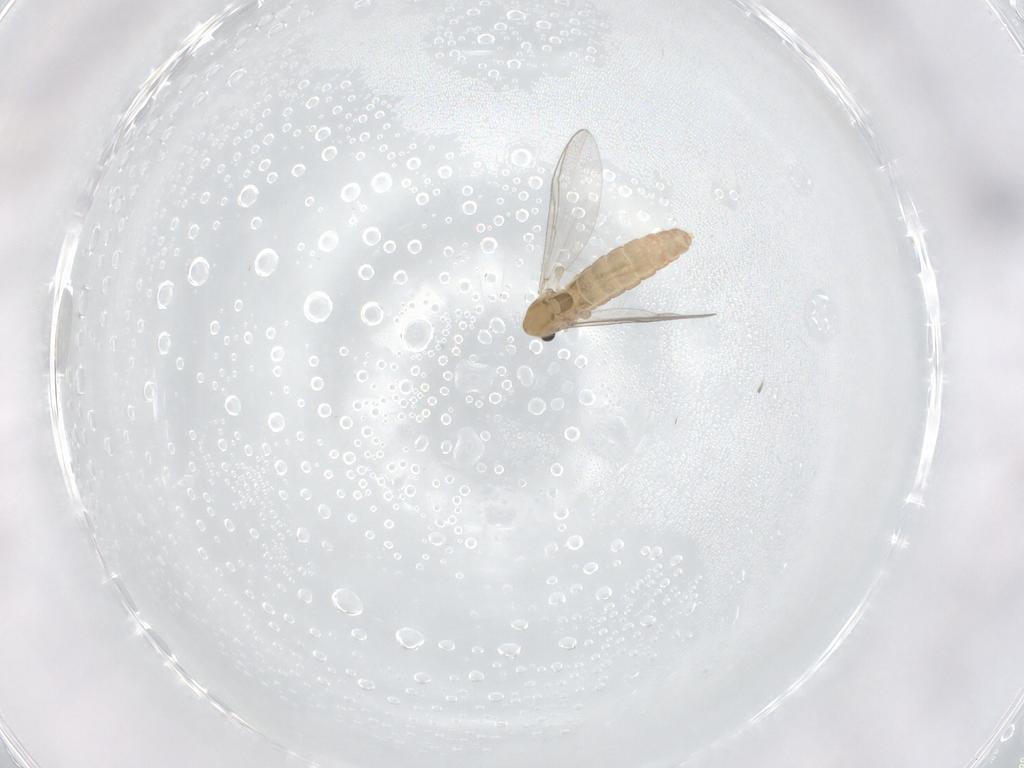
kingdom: Animalia
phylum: Arthropoda
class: Insecta
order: Diptera
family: Chironomidae
